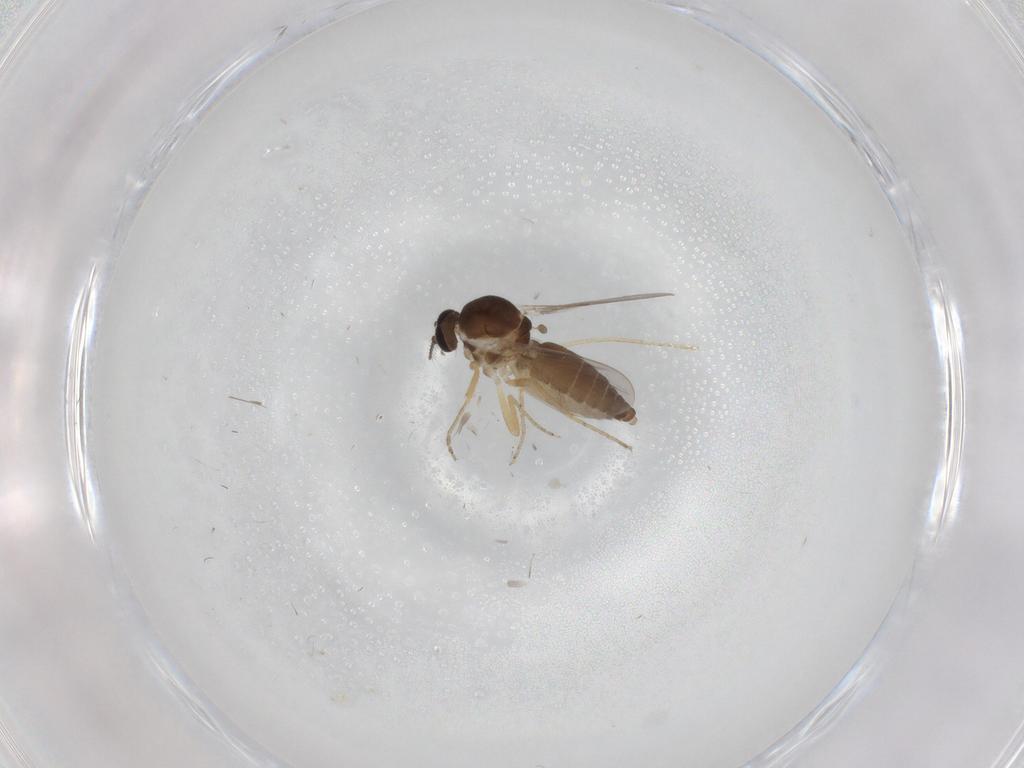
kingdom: Animalia
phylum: Arthropoda
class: Insecta
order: Diptera
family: Ceratopogonidae
